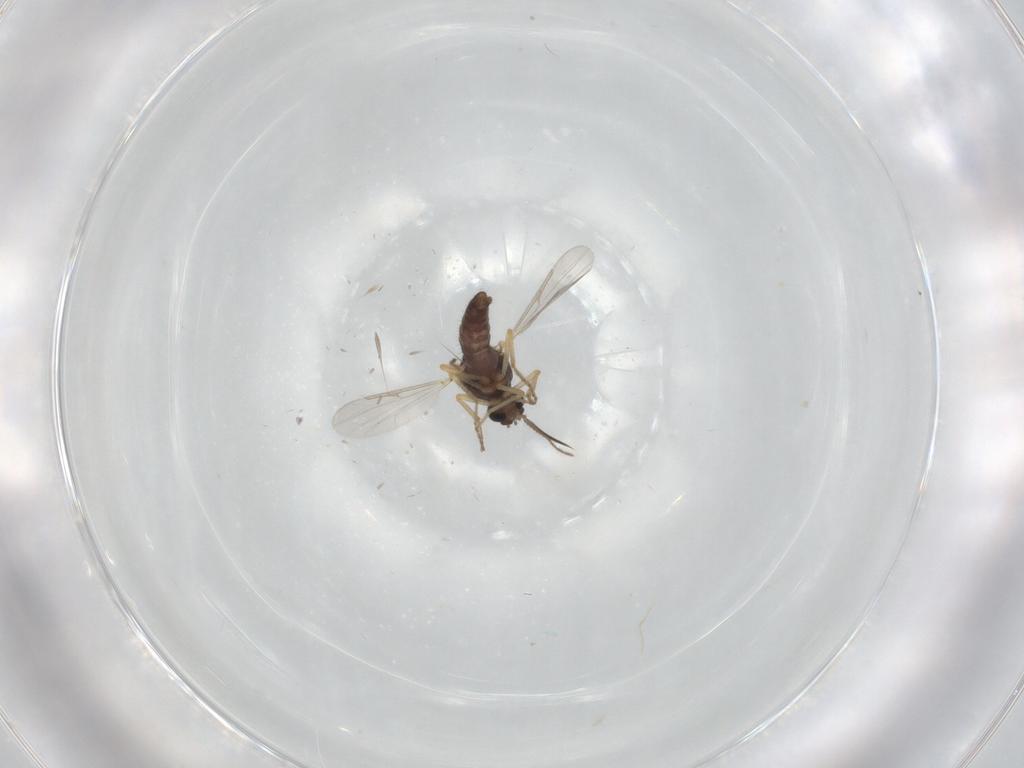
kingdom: Animalia
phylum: Arthropoda
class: Insecta
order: Diptera
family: Ceratopogonidae
